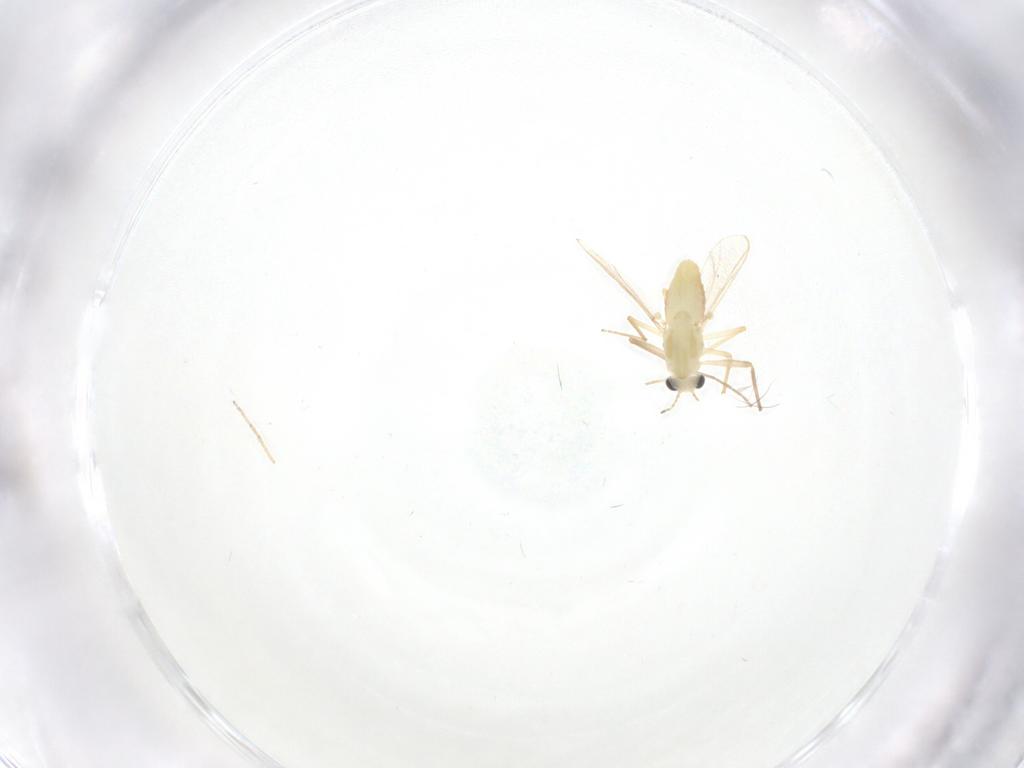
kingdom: Animalia
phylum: Arthropoda
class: Insecta
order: Diptera
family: Chironomidae
